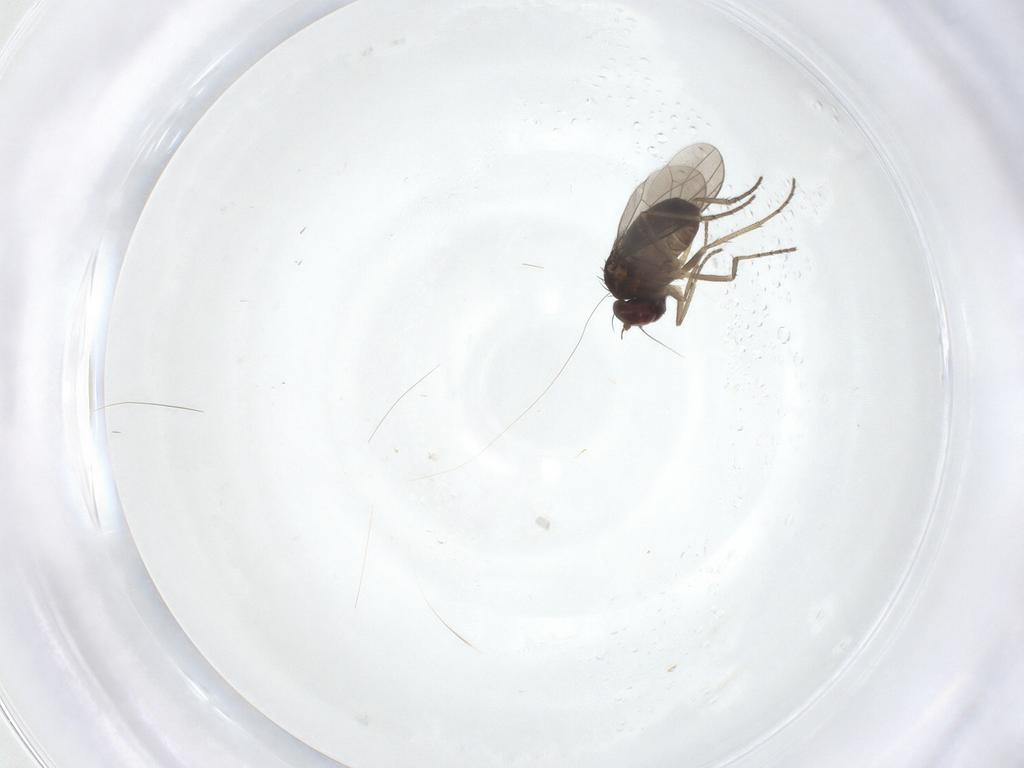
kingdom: Animalia
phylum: Arthropoda
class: Insecta
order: Diptera
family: Dolichopodidae
